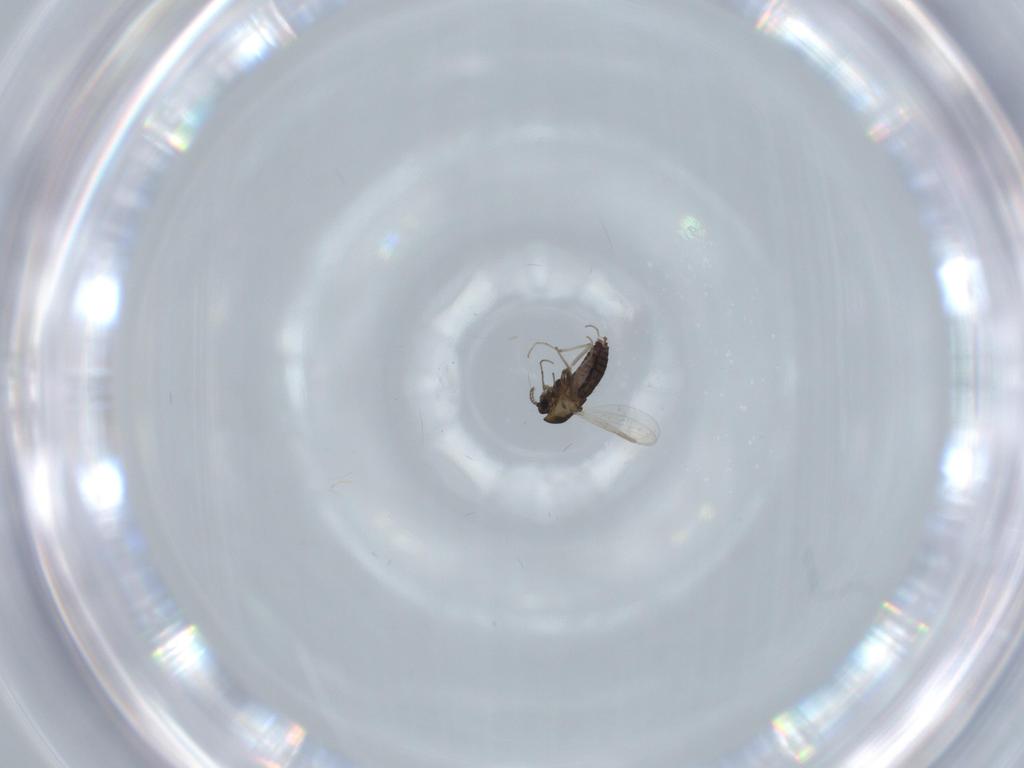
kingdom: Animalia
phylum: Arthropoda
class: Insecta
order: Diptera
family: Chironomidae
